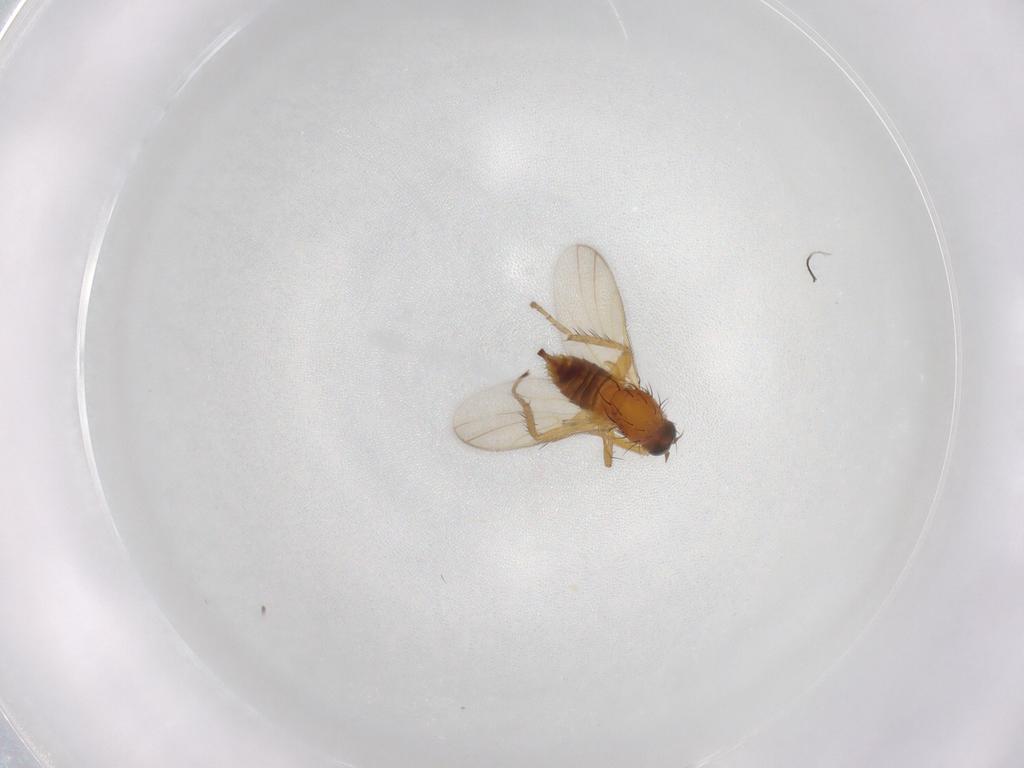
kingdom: Animalia
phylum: Arthropoda
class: Insecta
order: Diptera
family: Hybotidae
